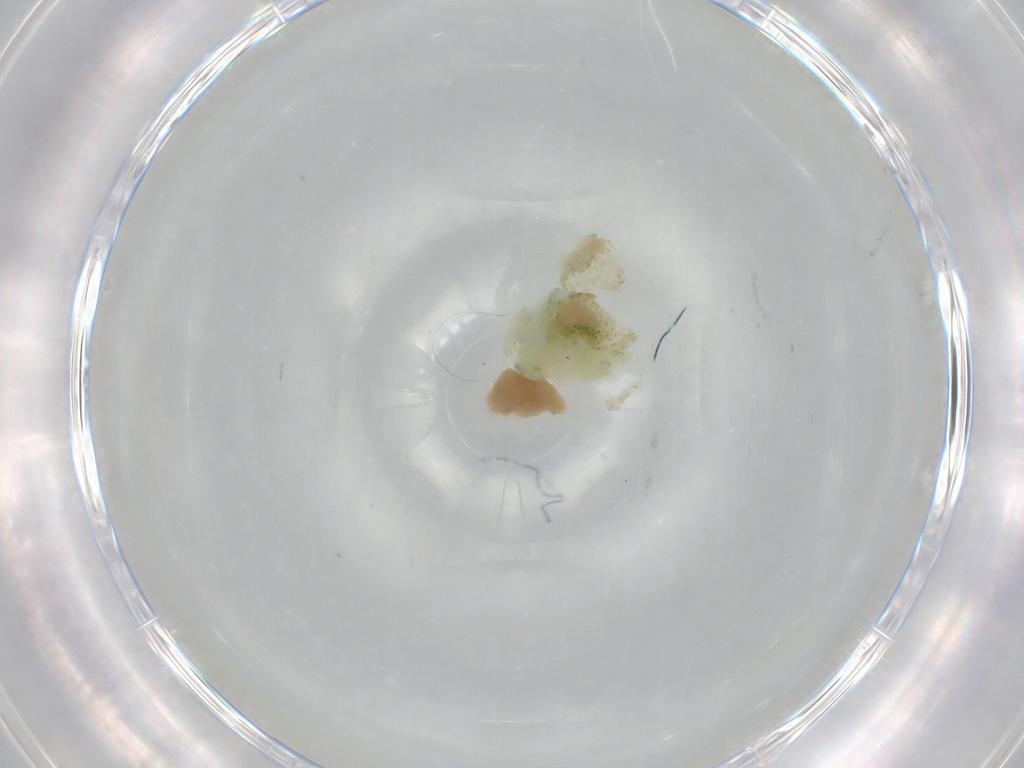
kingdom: Animalia
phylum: Arthropoda
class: Insecta
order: Diptera
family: Cecidomyiidae
